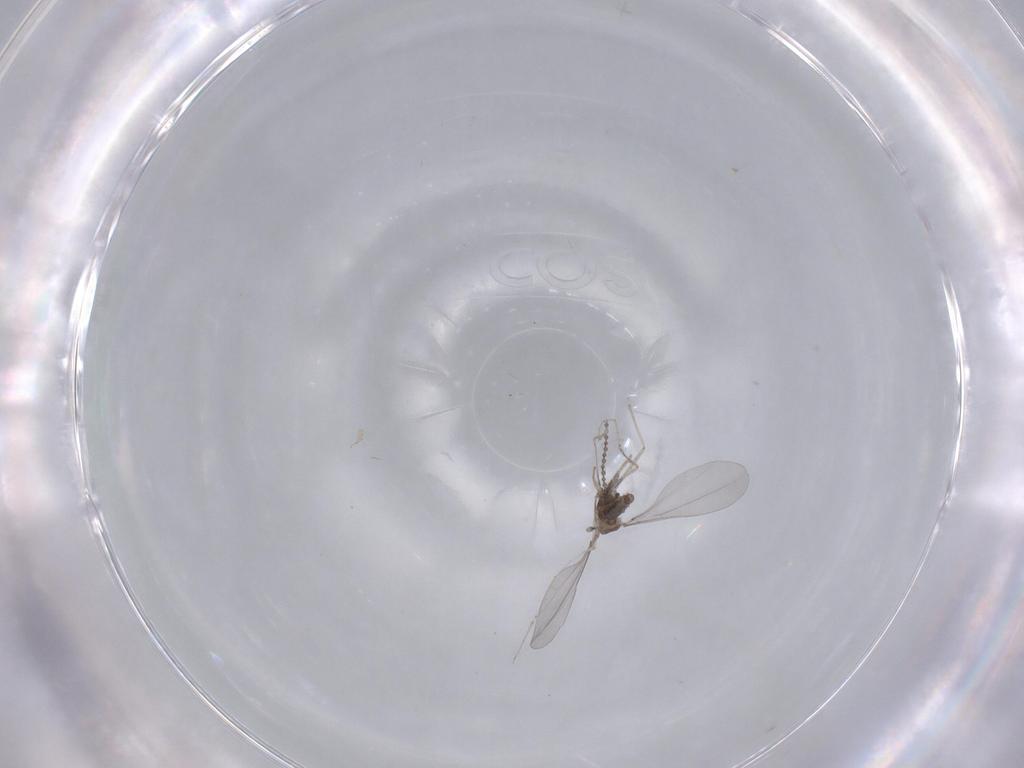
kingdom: Animalia
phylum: Arthropoda
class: Insecta
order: Diptera
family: Cecidomyiidae
